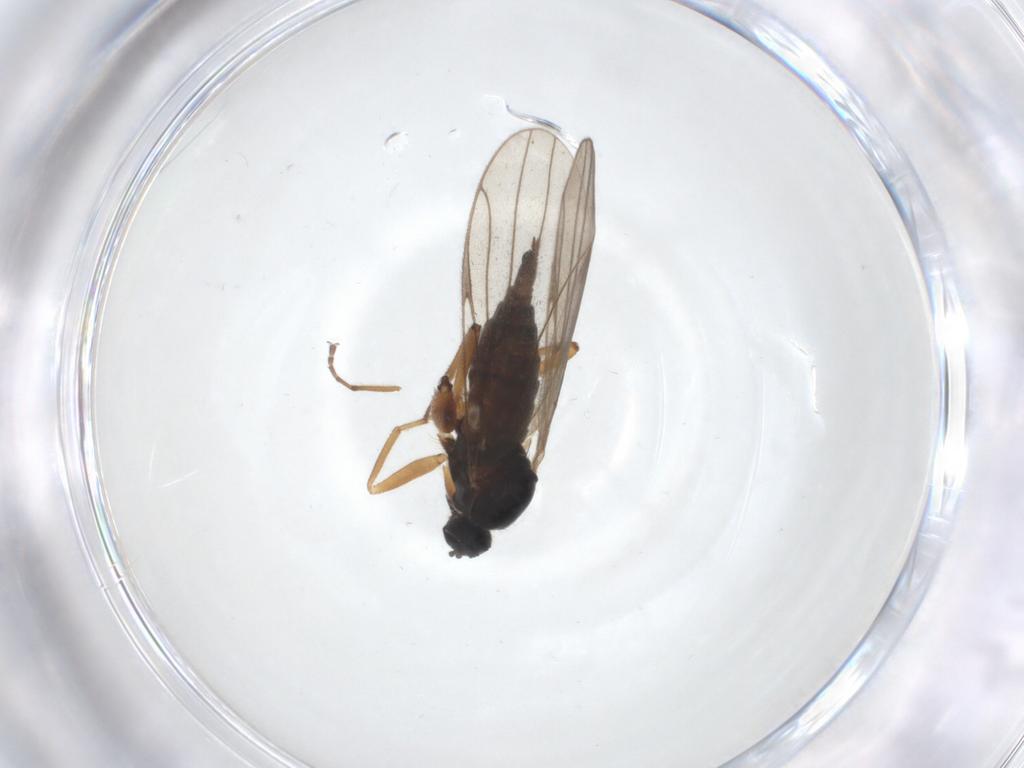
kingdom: Animalia
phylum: Arthropoda
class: Insecta
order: Diptera
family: Hybotidae
